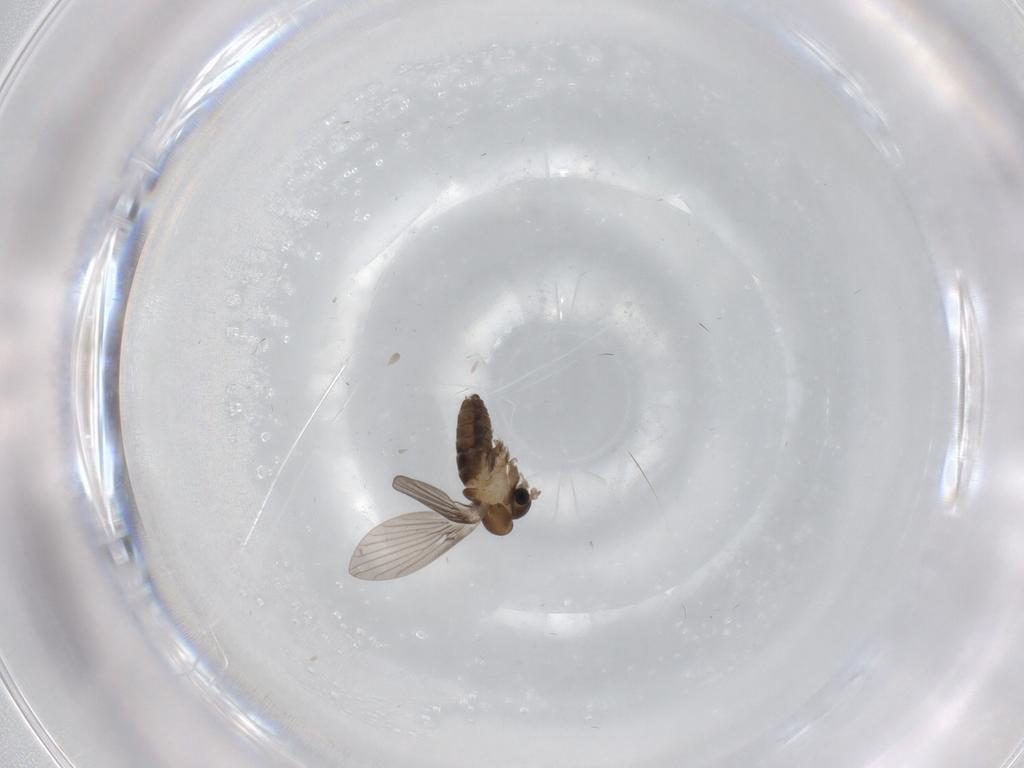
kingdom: Animalia
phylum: Arthropoda
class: Insecta
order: Diptera
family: Psychodidae
